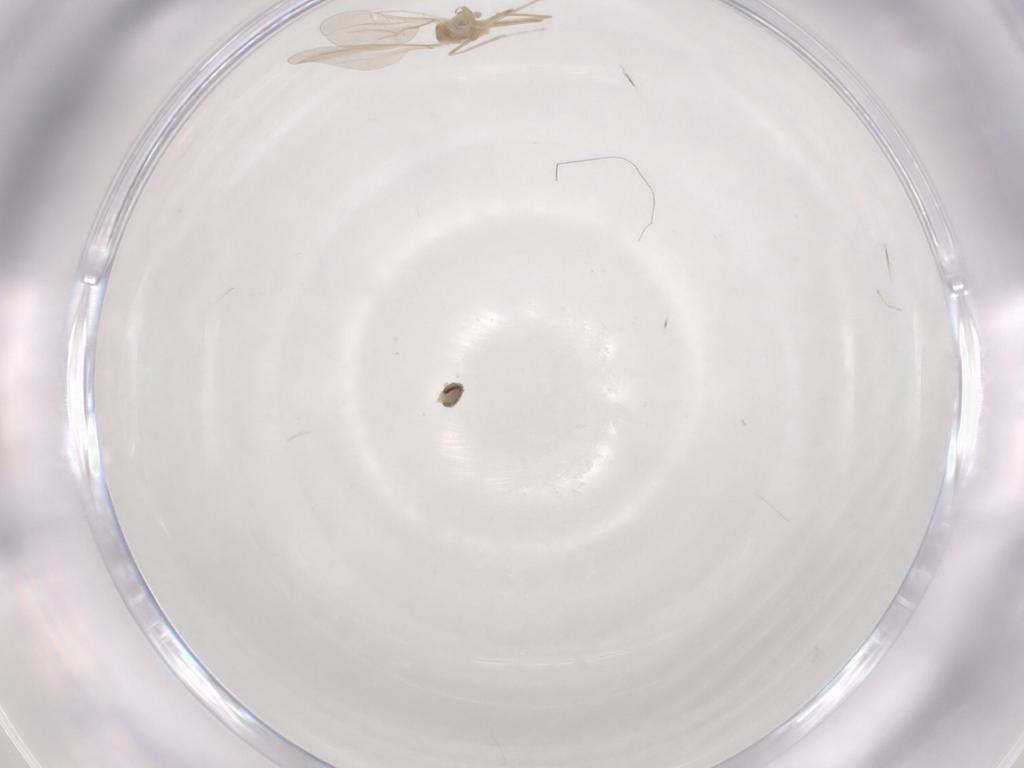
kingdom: Animalia
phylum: Arthropoda
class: Insecta
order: Diptera
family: Cecidomyiidae
